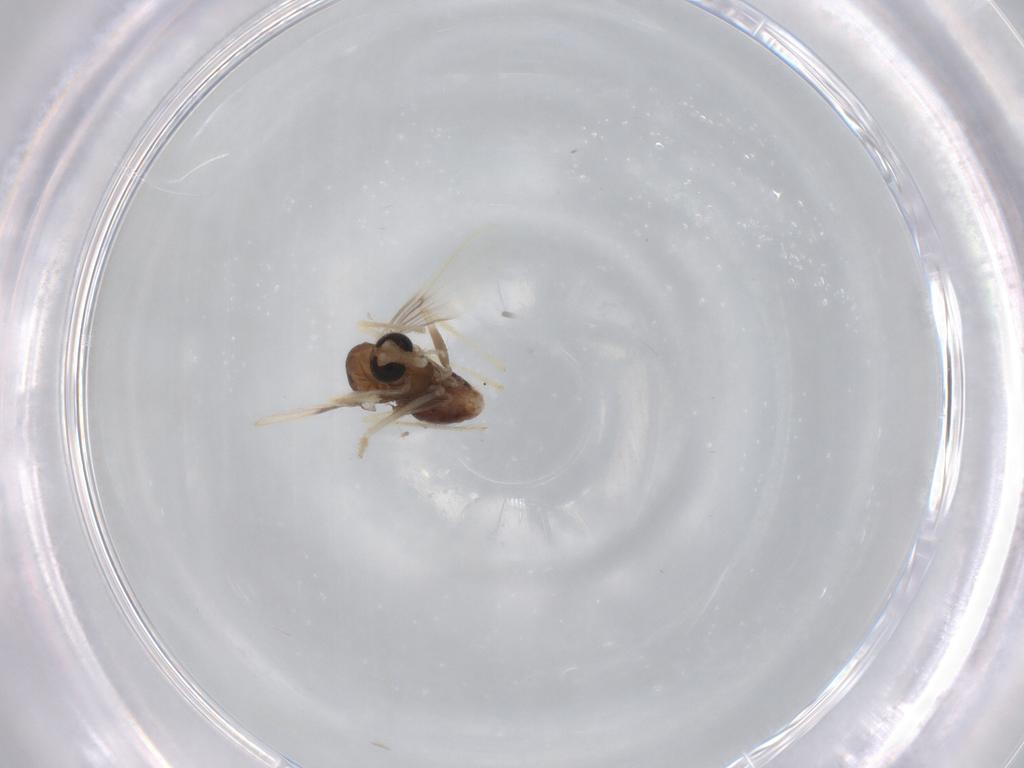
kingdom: Animalia
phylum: Arthropoda
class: Insecta
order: Diptera
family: Chironomidae
